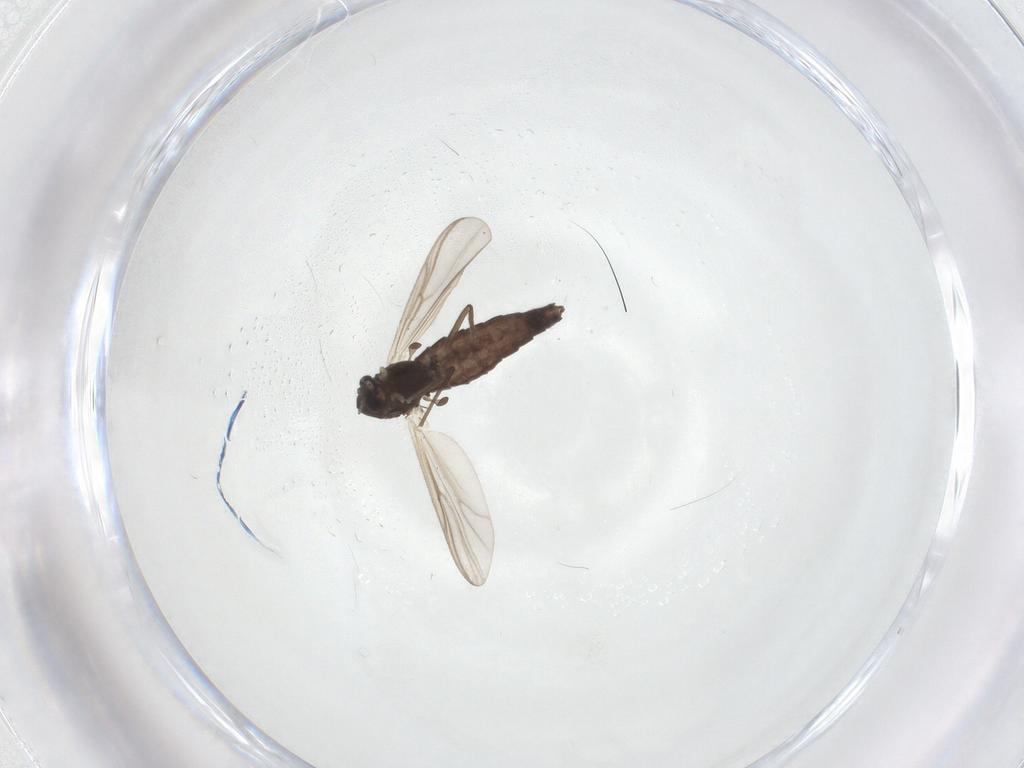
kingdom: Animalia
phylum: Arthropoda
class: Insecta
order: Diptera
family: Chironomidae
